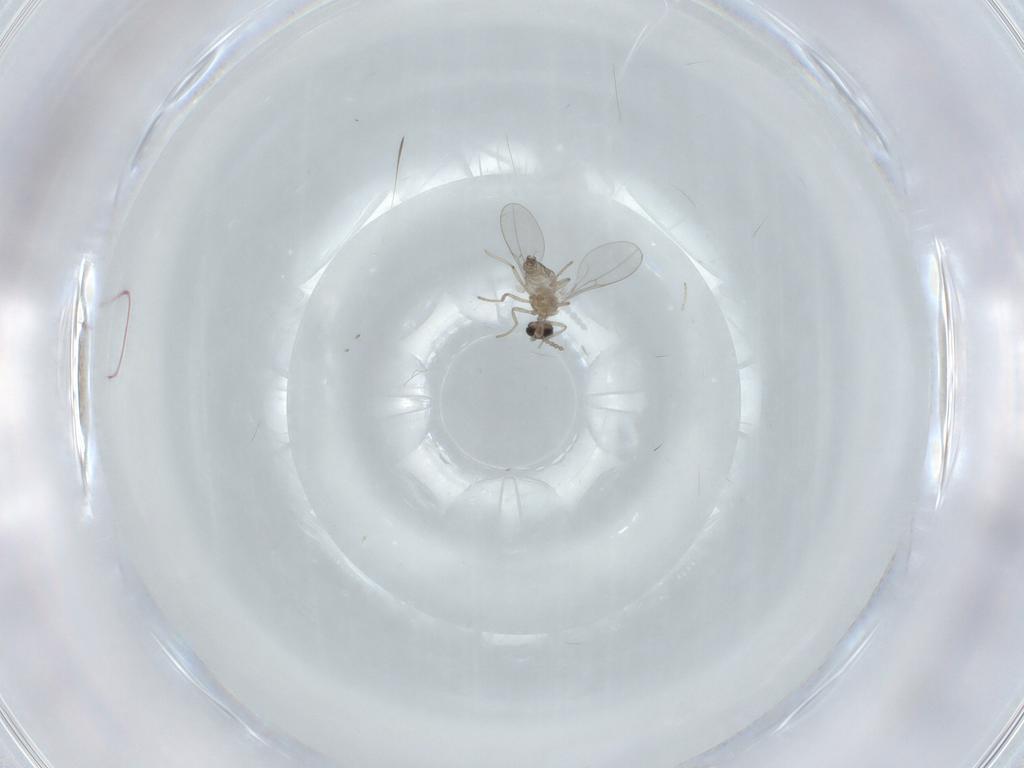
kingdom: Animalia
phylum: Arthropoda
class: Insecta
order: Diptera
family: Cecidomyiidae
